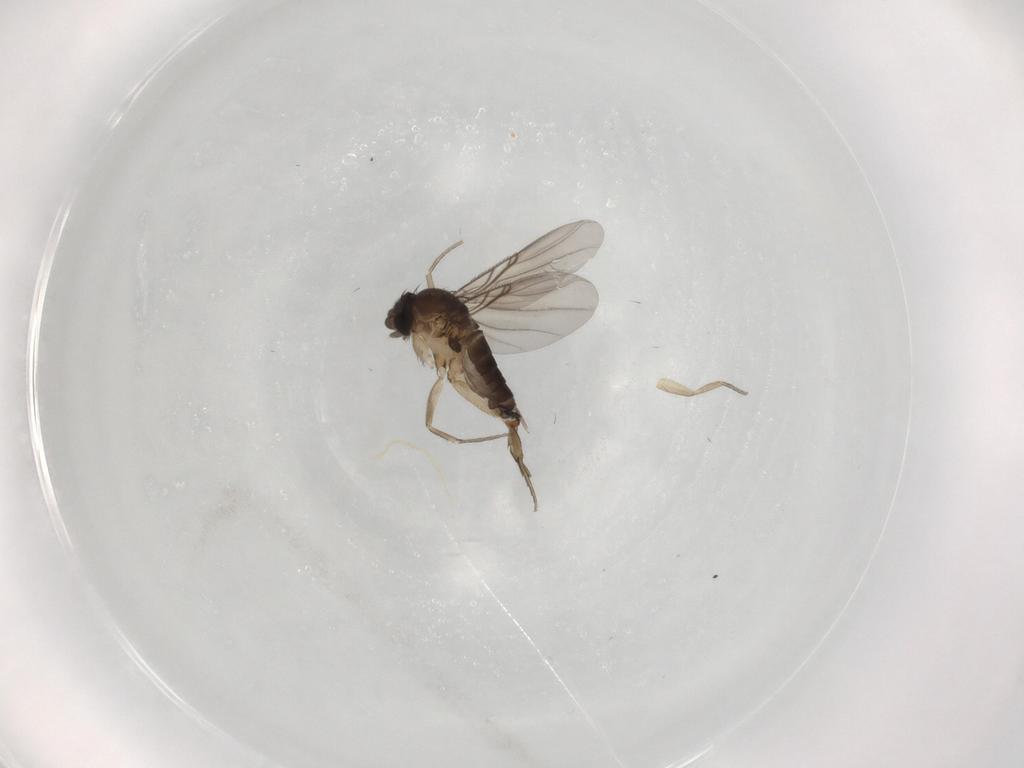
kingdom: Animalia
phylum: Arthropoda
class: Insecta
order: Diptera
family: Phoridae
